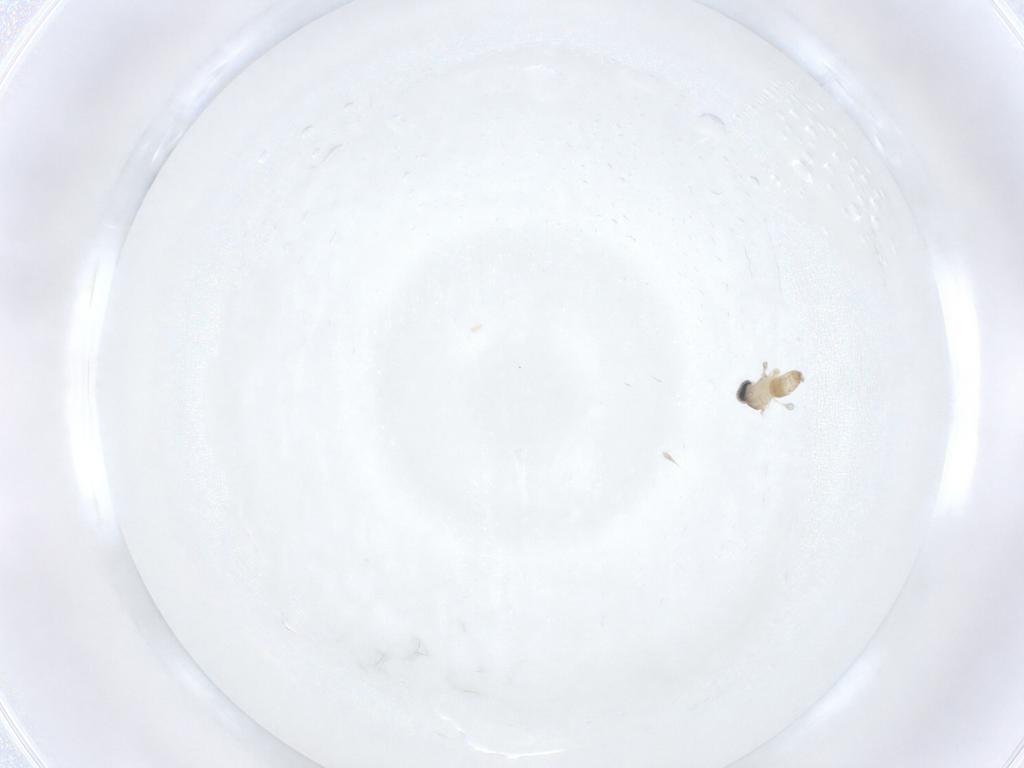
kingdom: Animalia
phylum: Arthropoda
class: Insecta
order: Diptera
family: Cecidomyiidae
